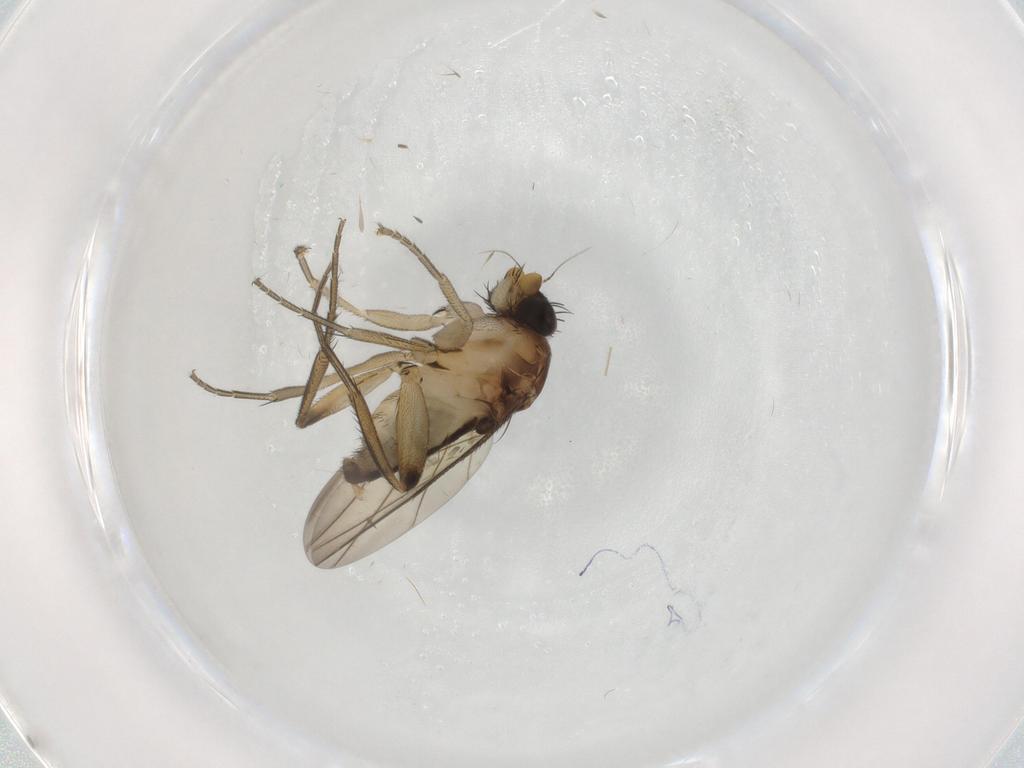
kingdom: Animalia
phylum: Arthropoda
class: Insecta
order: Diptera
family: Phoridae
